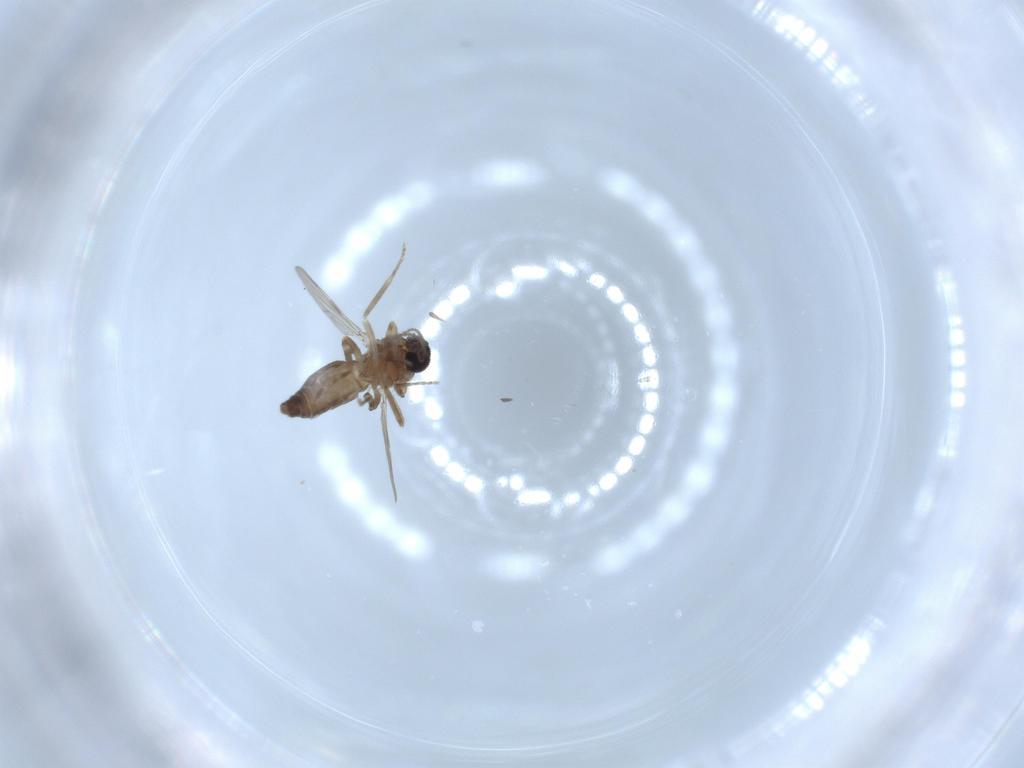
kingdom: Animalia
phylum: Arthropoda
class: Insecta
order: Diptera
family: Ceratopogonidae
